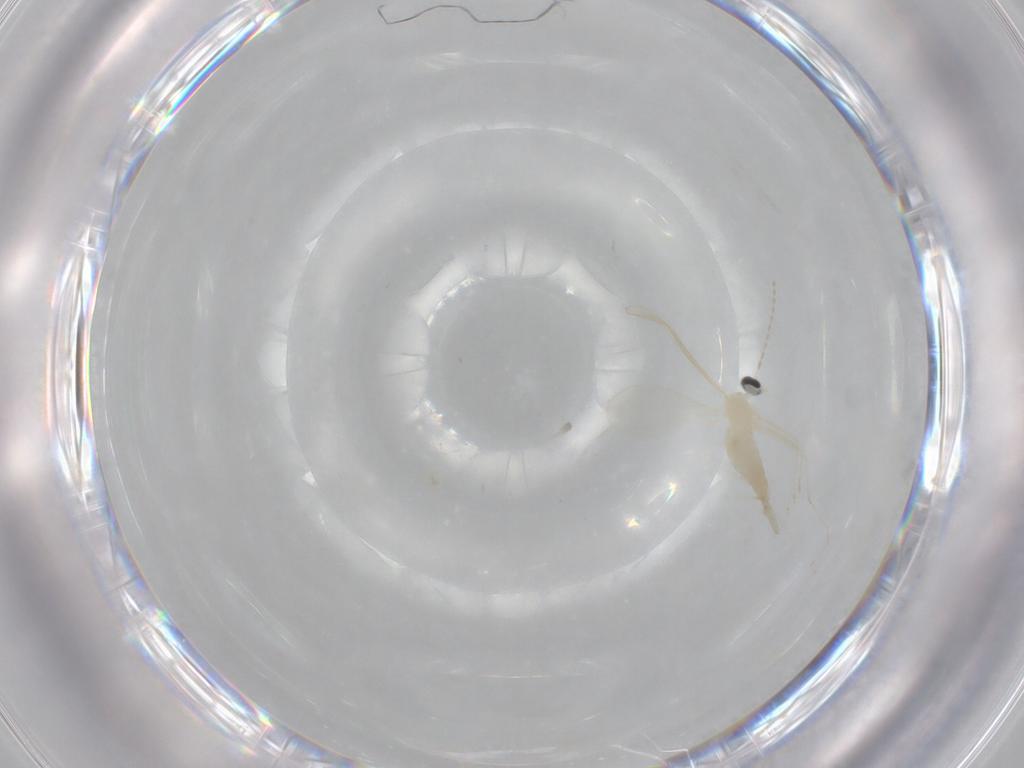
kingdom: Animalia
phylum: Arthropoda
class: Insecta
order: Diptera
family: Cecidomyiidae
